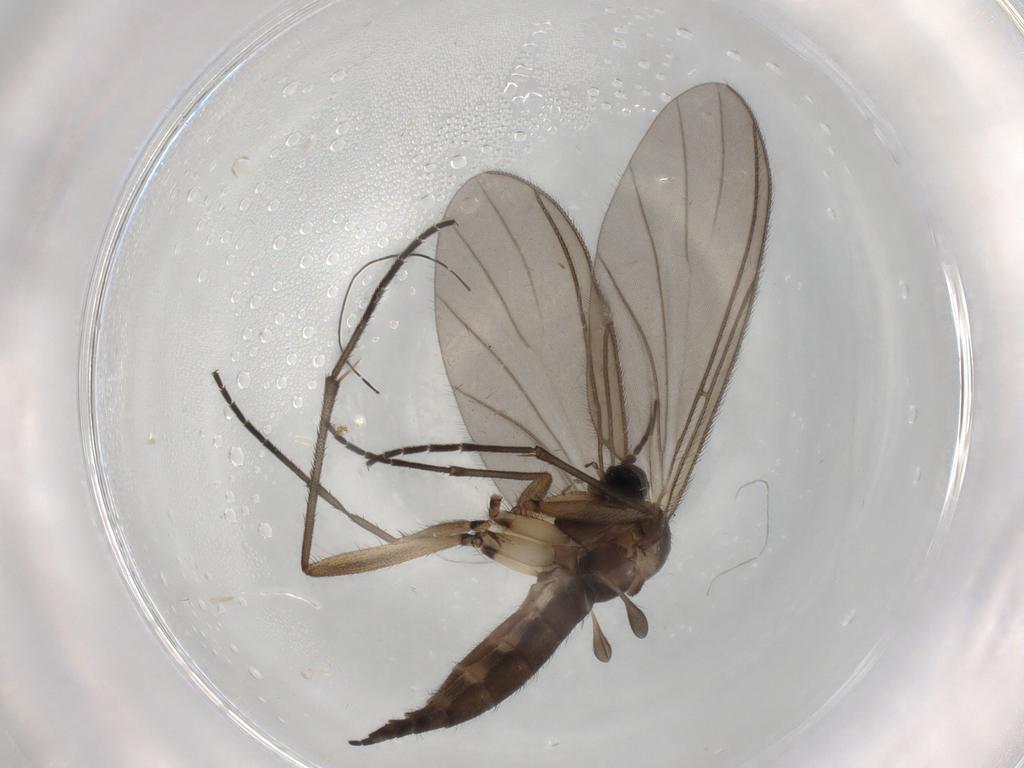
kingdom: Animalia
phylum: Arthropoda
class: Insecta
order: Diptera
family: Sciaridae
